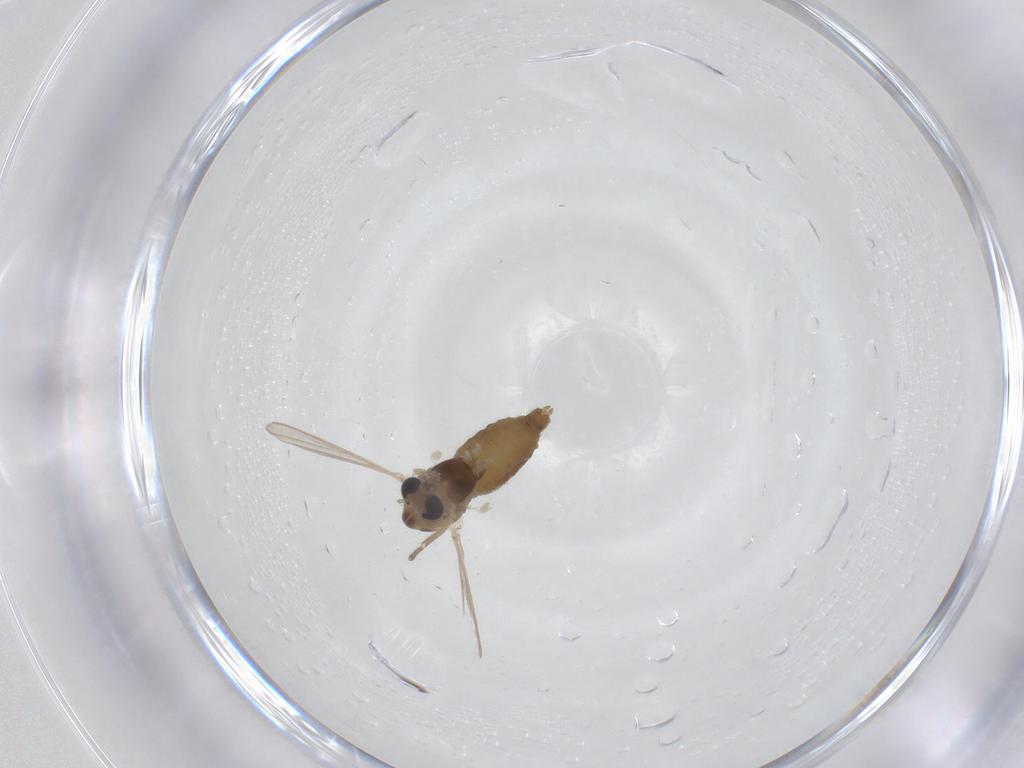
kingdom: Animalia
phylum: Arthropoda
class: Insecta
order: Diptera
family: Chironomidae
